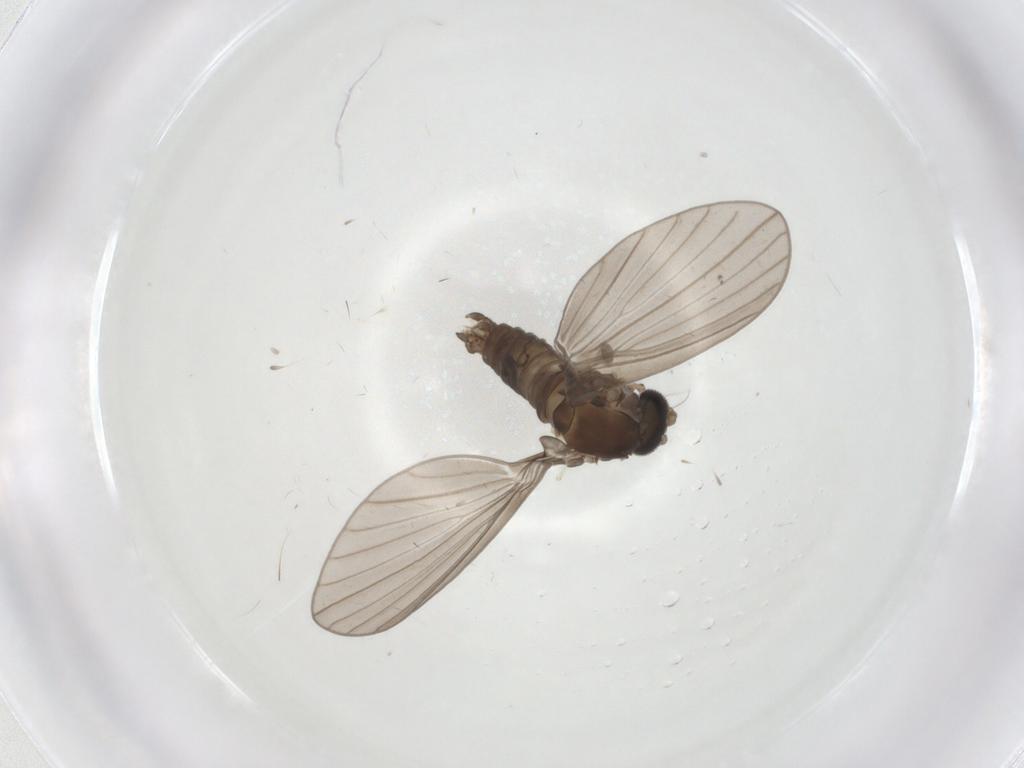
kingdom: Animalia
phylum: Arthropoda
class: Insecta
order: Diptera
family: Psychodidae
